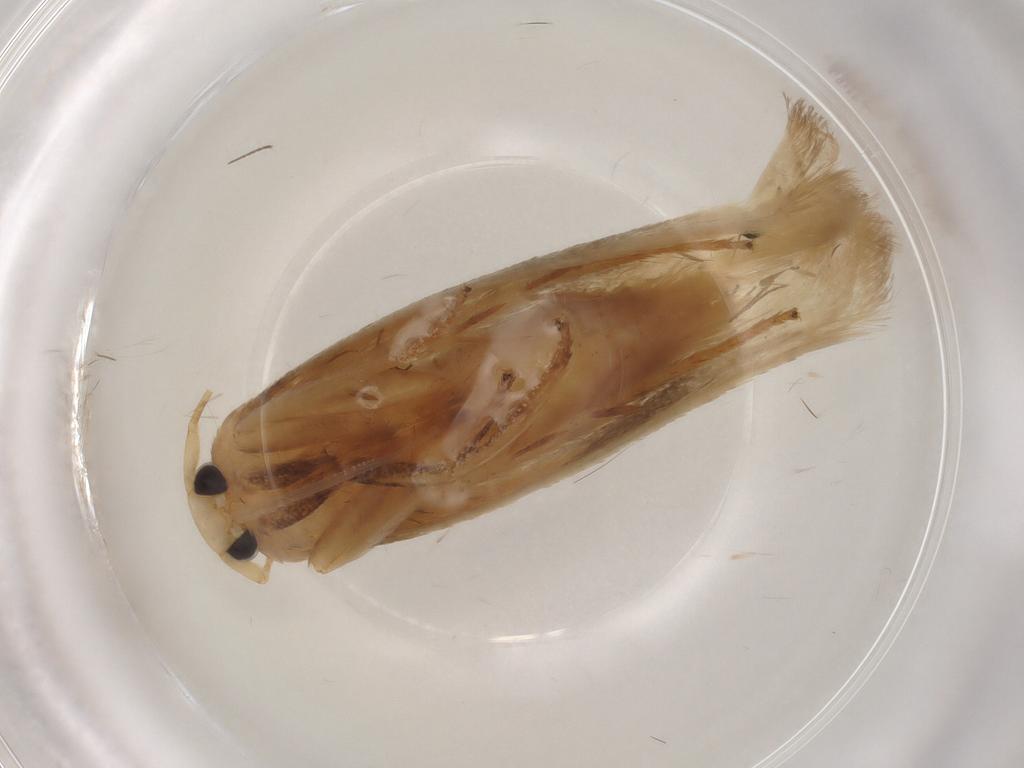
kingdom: Animalia
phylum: Arthropoda
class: Insecta
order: Lepidoptera
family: Geometridae
